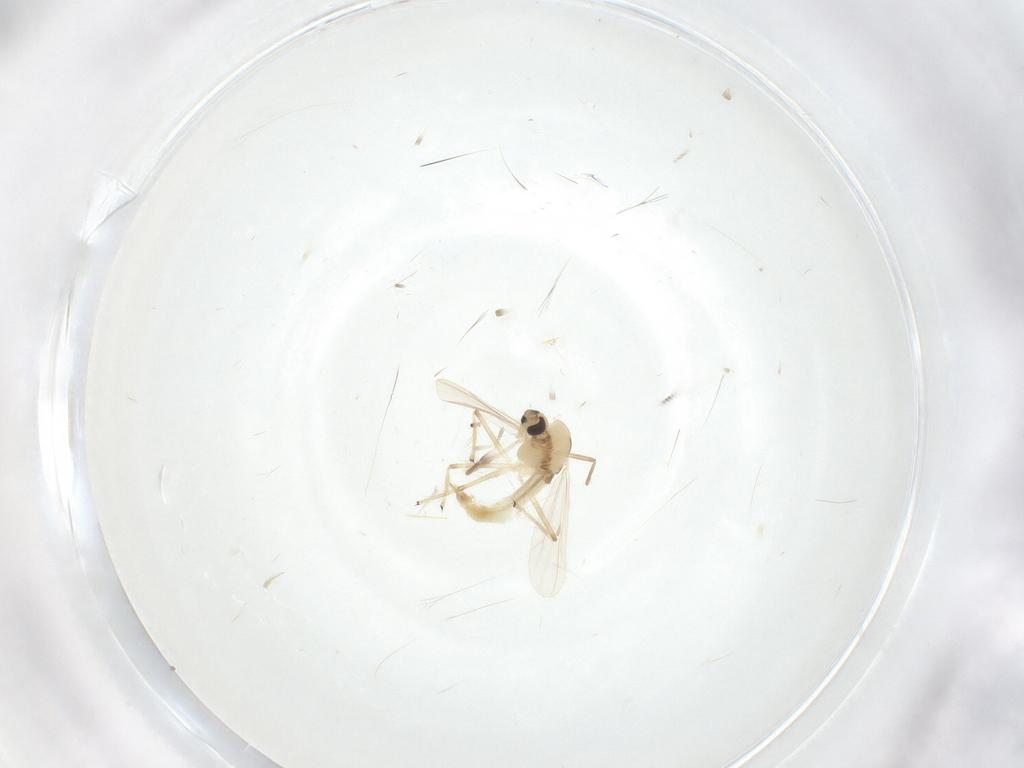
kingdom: Animalia
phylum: Arthropoda
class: Insecta
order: Diptera
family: Chironomidae
